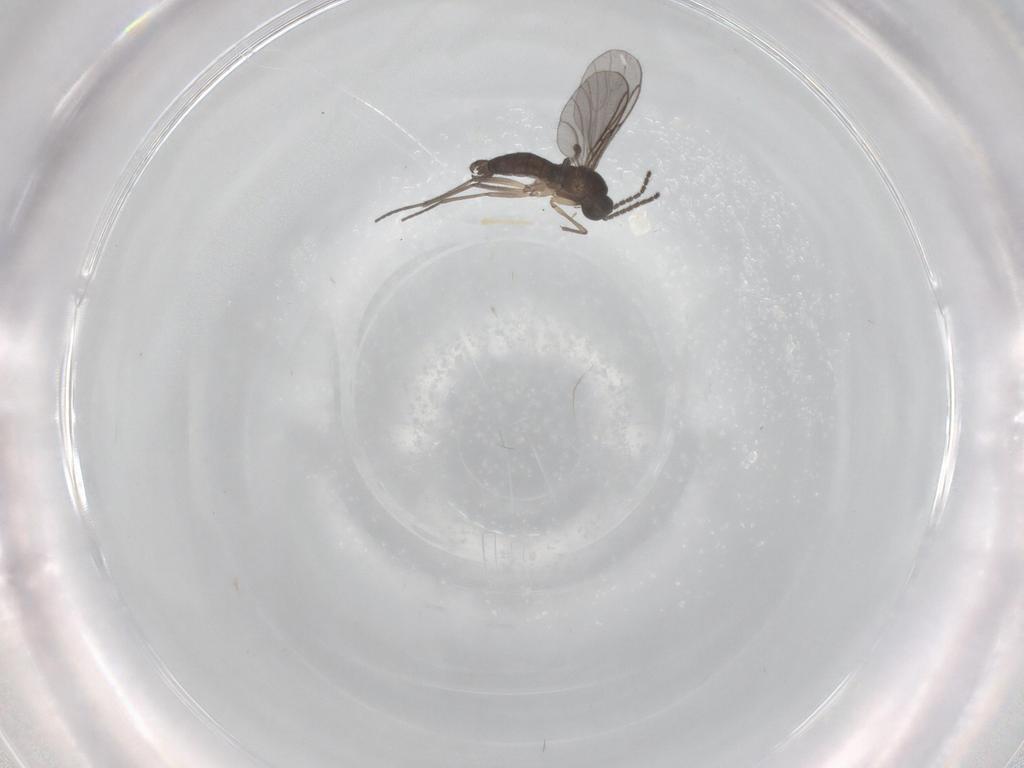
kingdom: Animalia
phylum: Arthropoda
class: Insecta
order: Diptera
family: Sciaridae
